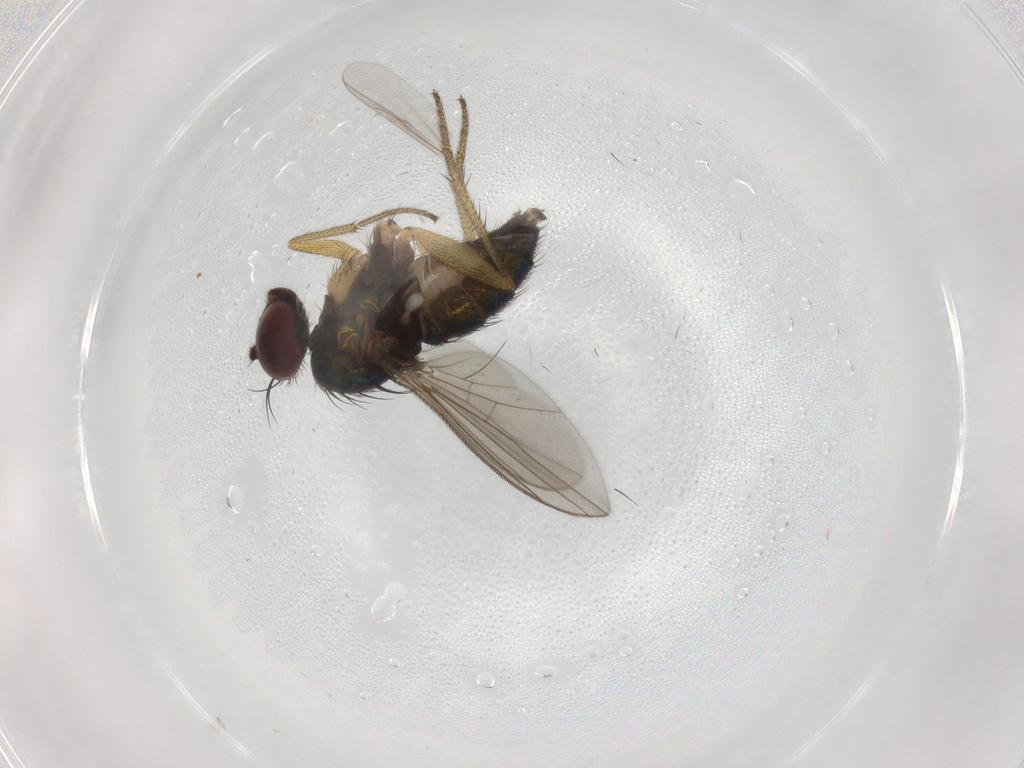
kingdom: Animalia
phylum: Arthropoda
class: Insecta
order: Diptera
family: Dolichopodidae
